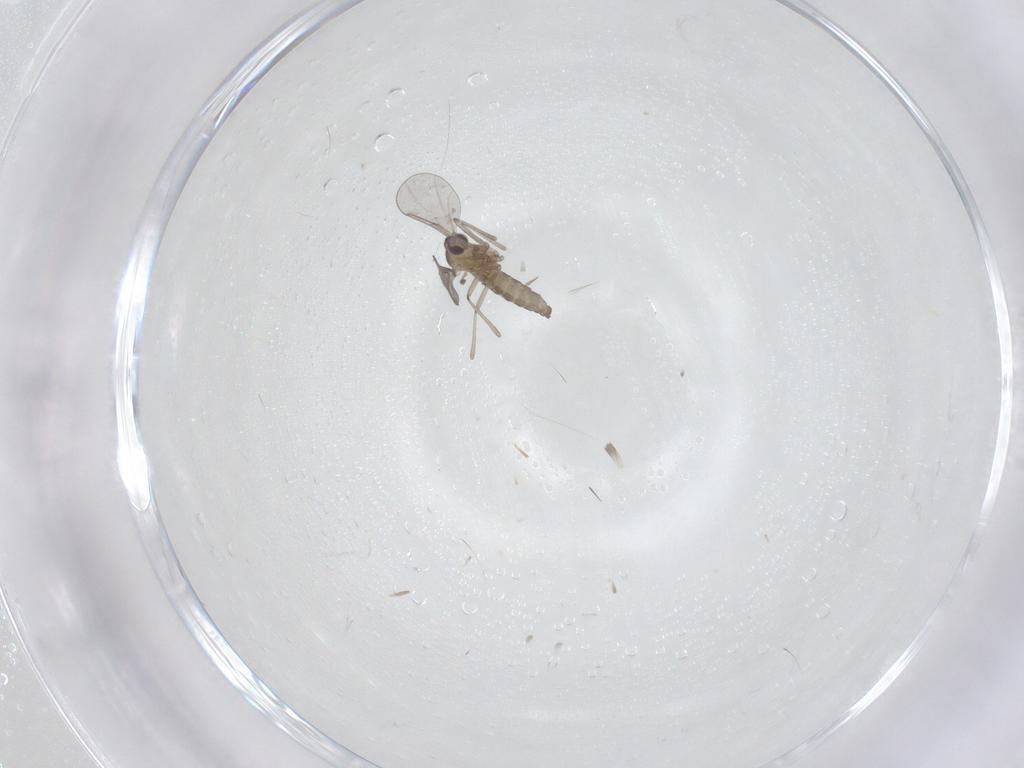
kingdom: Animalia
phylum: Arthropoda
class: Insecta
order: Diptera
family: Cecidomyiidae
